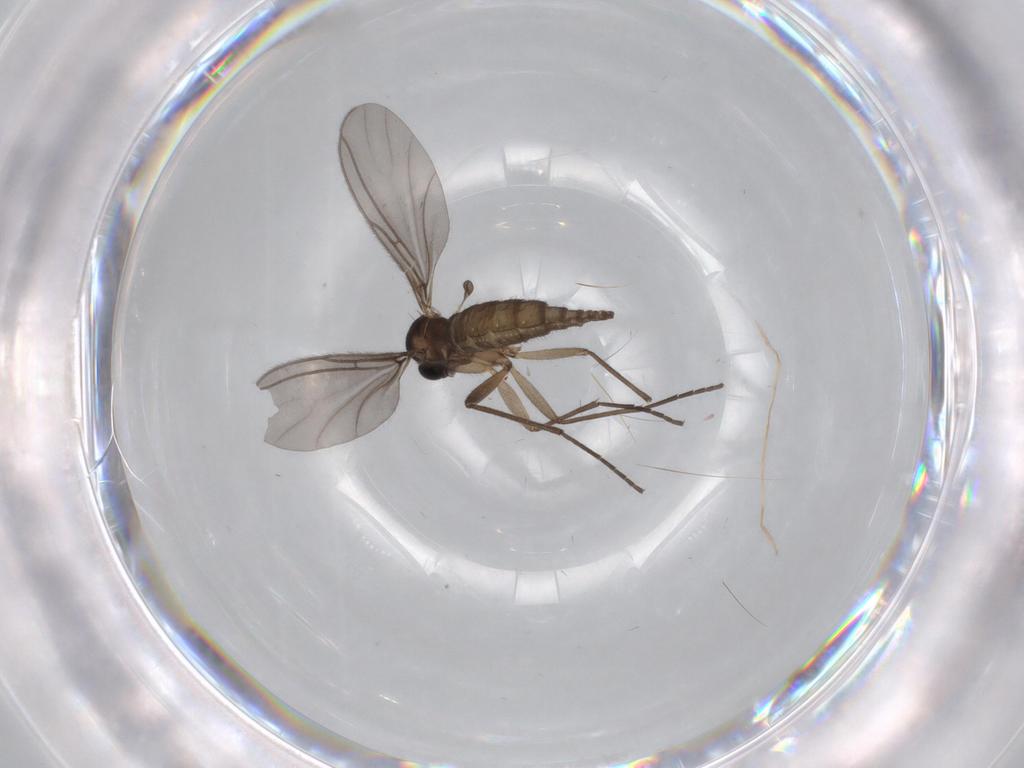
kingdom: Animalia
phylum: Arthropoda
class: Insecta
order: Diptera
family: Sciaridae
